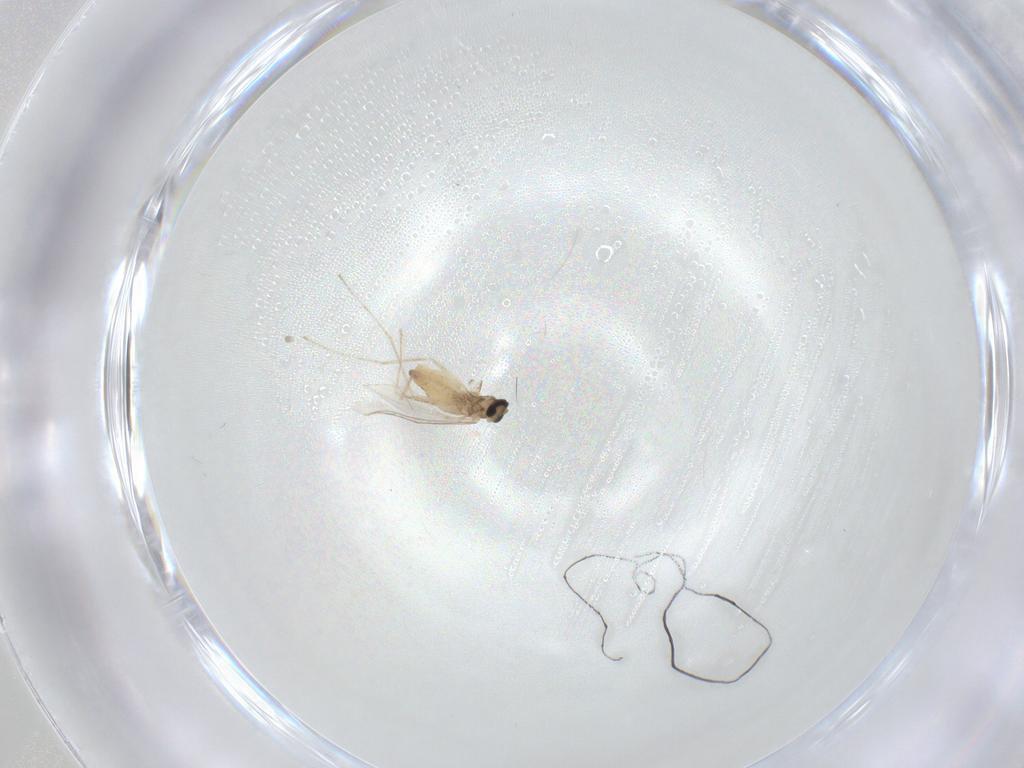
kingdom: Animalia
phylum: Arthropoda
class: Insecta
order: Diptera
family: Cecidomyiidae
